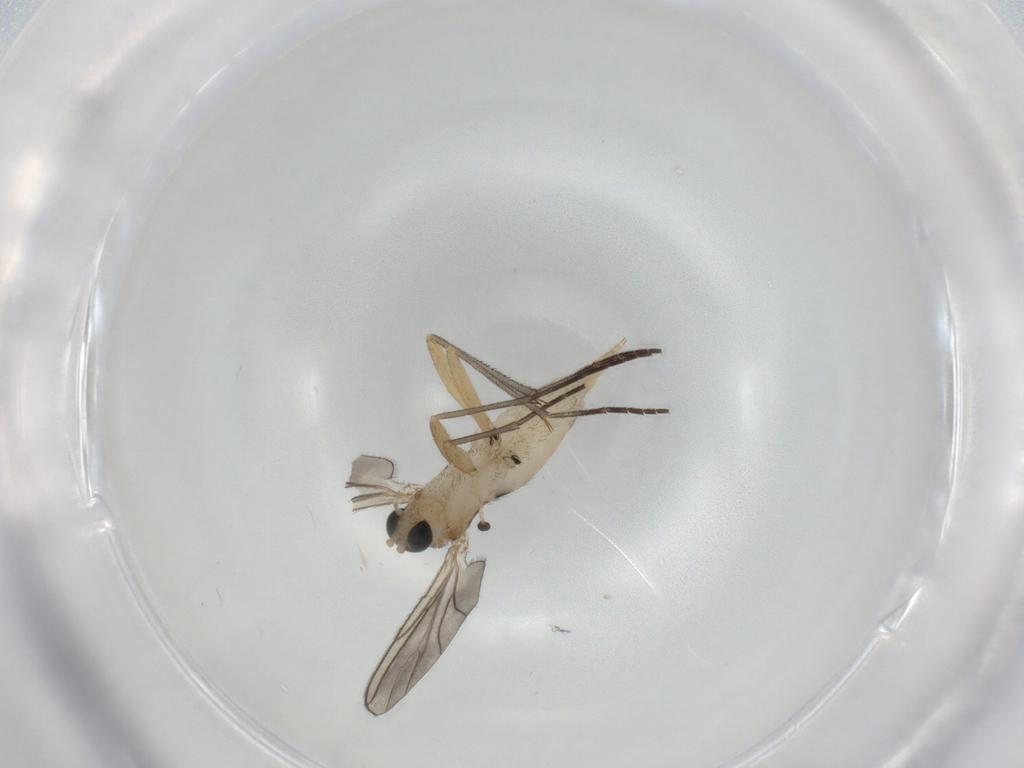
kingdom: Animalia
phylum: Arthropoda
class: Insecta
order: Diptera
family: Sciaridae
